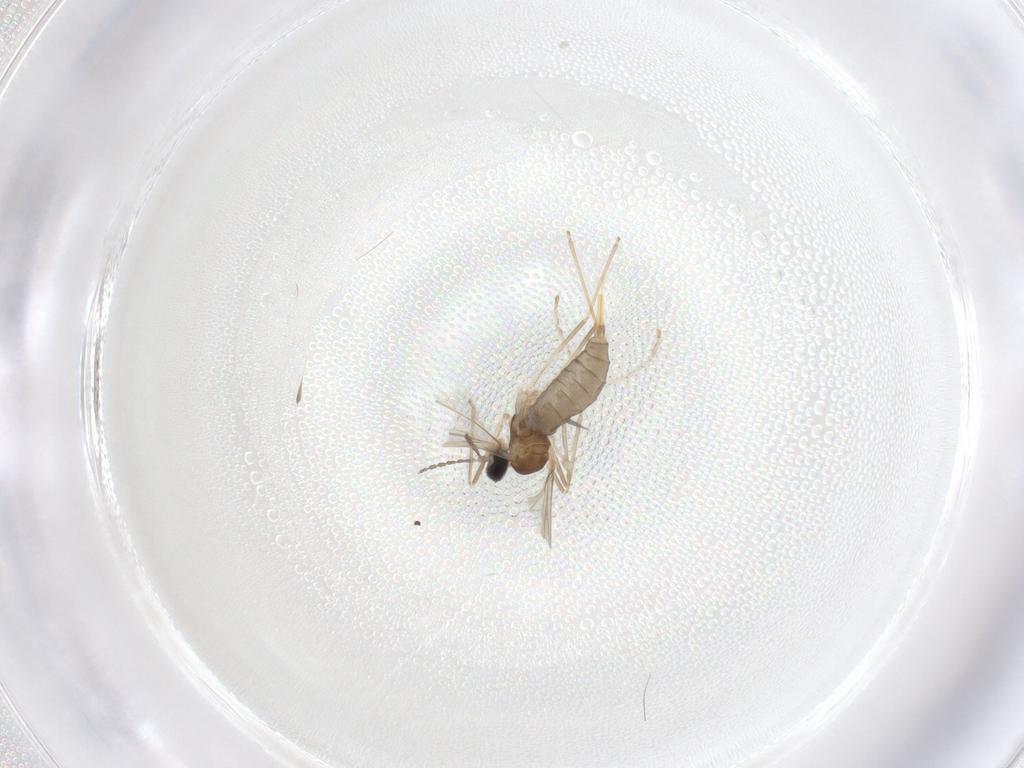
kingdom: Animalia
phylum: Arthropoda
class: Insecta
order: Diptera
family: Cecidomyiidae
